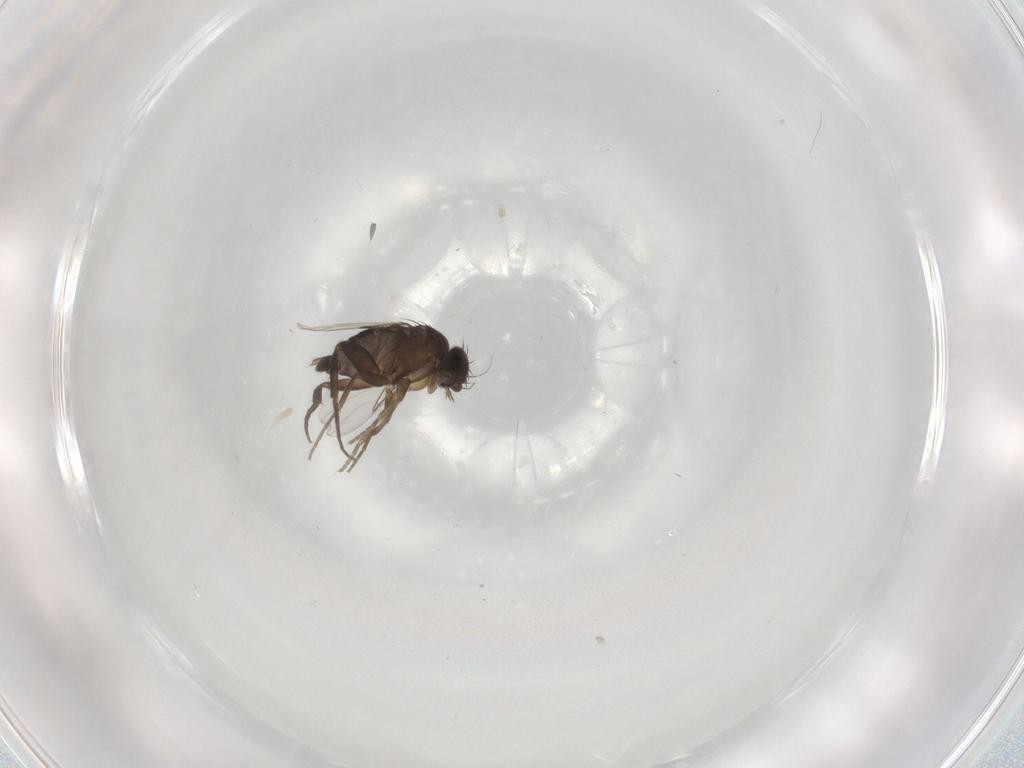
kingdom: Animalia
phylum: Arthropoda
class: Insecta
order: Diptera
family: Phoridae
